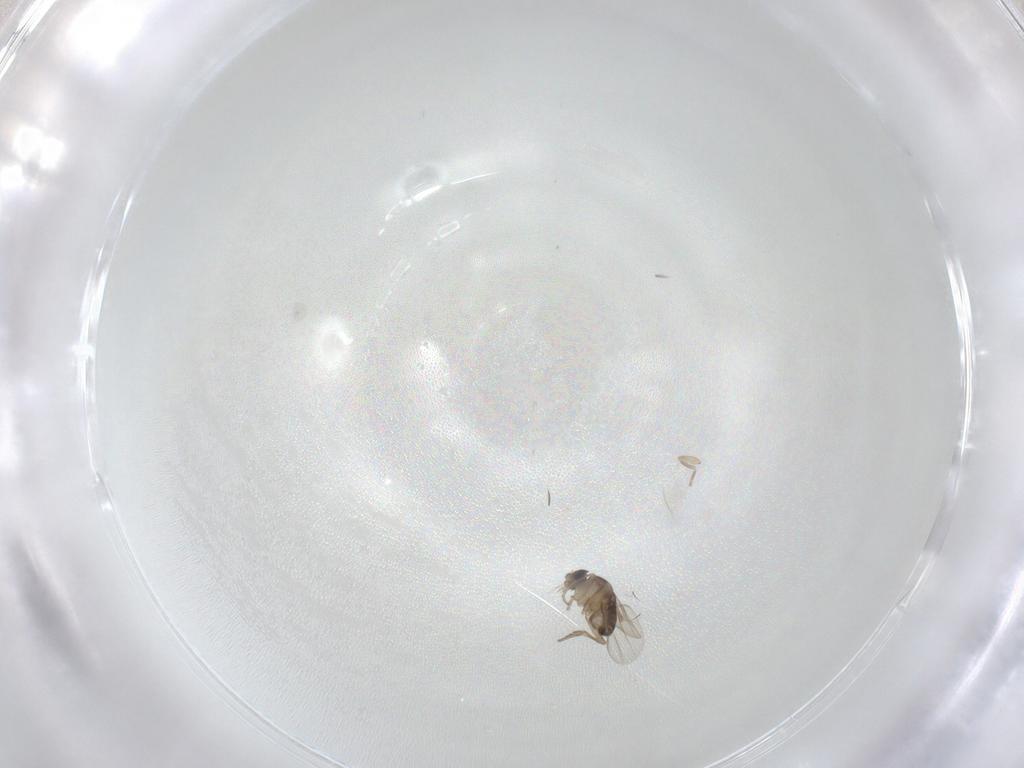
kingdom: Animalia
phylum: Arthropoda
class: Insecta
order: Diptera
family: Phoridae
